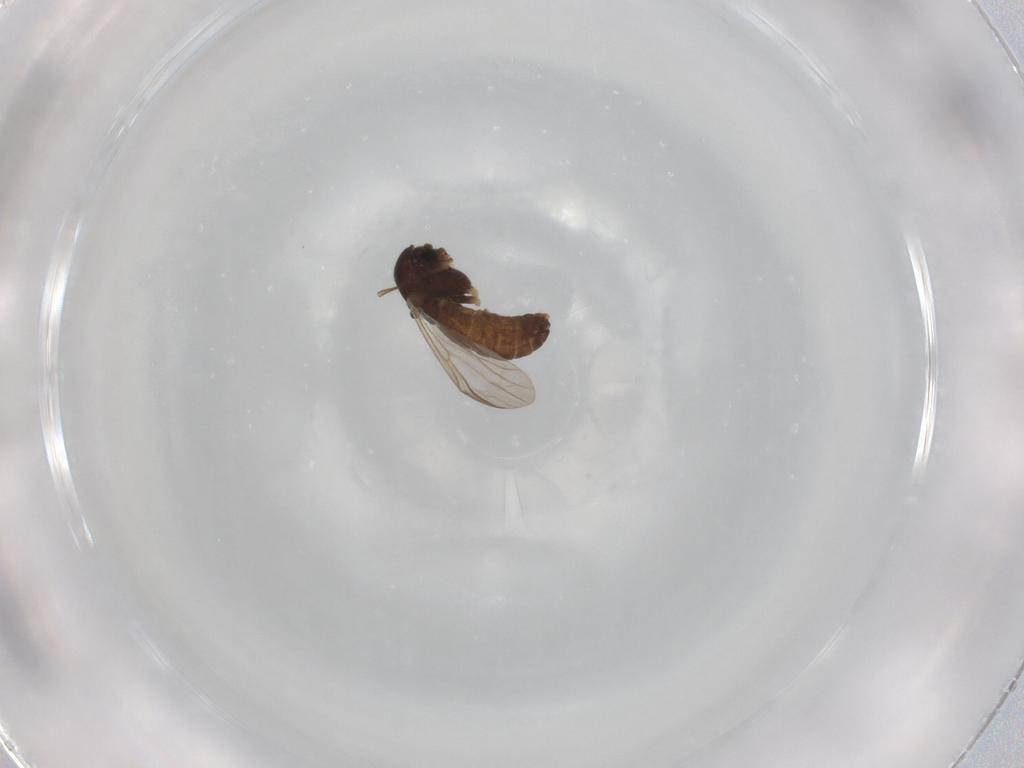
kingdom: Animalia
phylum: Arthropoda
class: Insecta
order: Diptera
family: Chironomidae
